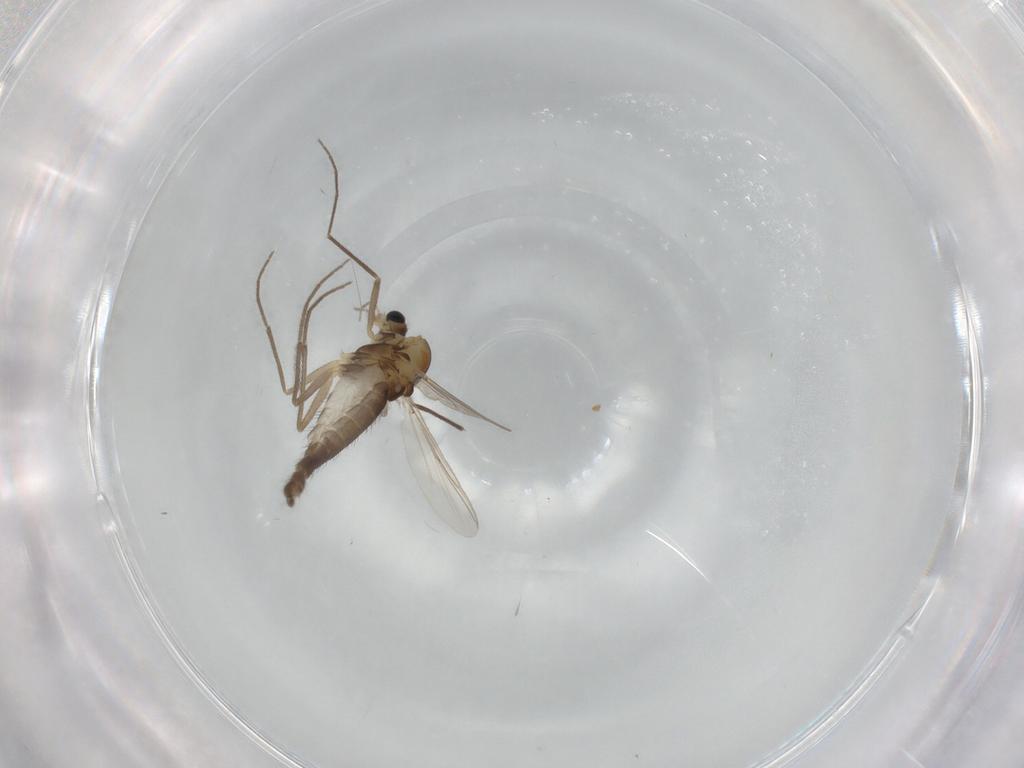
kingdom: Animalia
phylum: Arthropoda
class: Insecta
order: Diptera
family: Chironomidae
